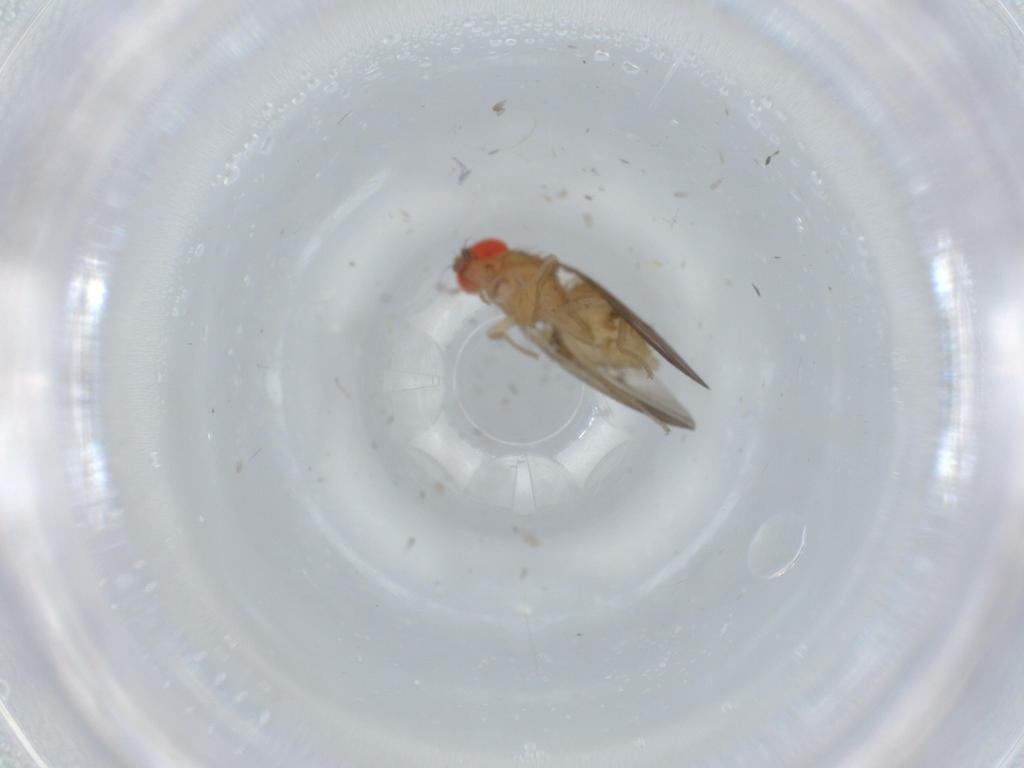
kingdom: Animalia
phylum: Arthropoda
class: Insecta
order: Diptera
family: Drosophilidae
